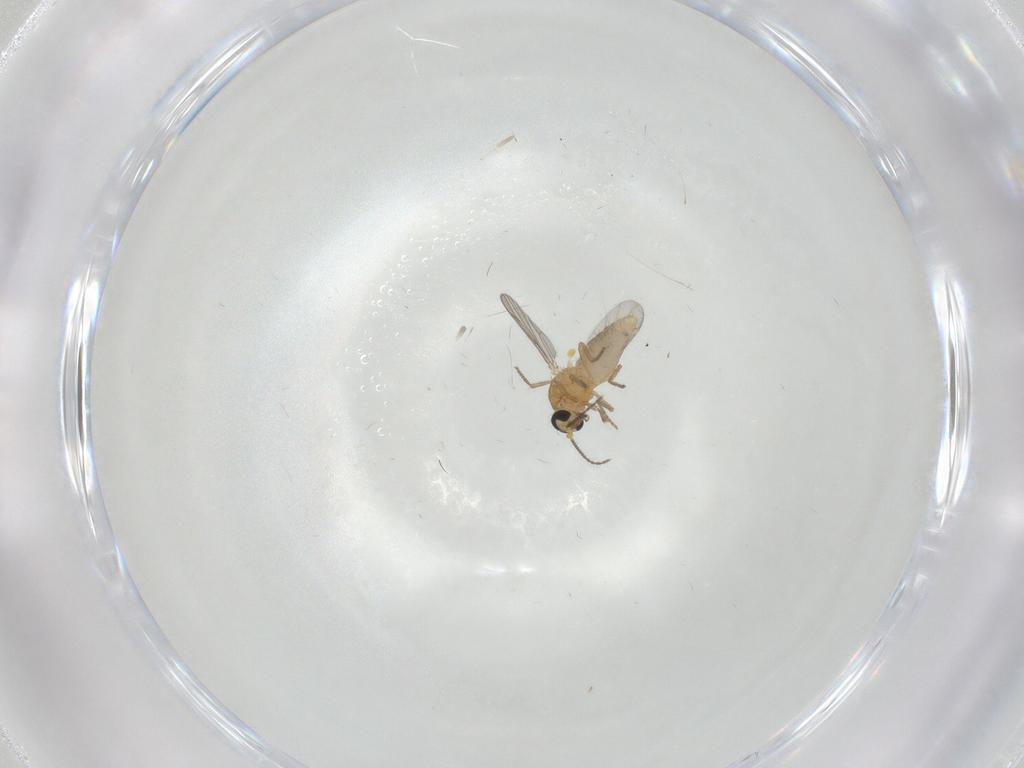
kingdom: Animalia
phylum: Arthropoda
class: Insecta
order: Diptera
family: Ceratopogonidae
